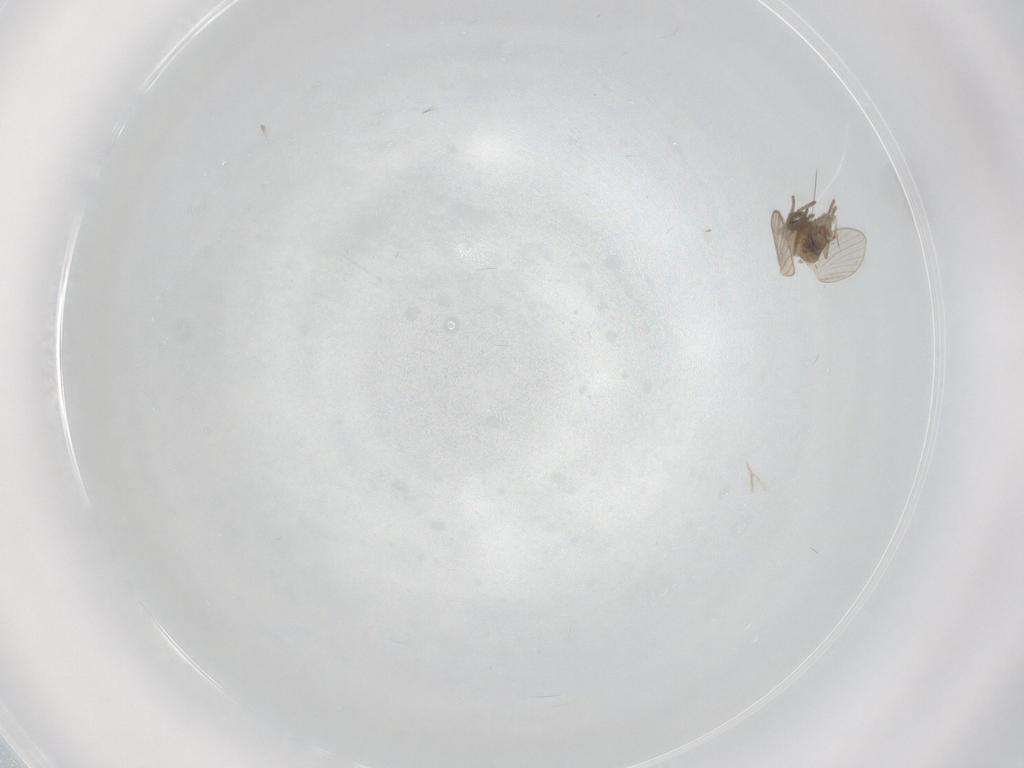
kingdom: Animalia
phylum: Arthropoda
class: Insecta
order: Diptera
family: Psychodidae
